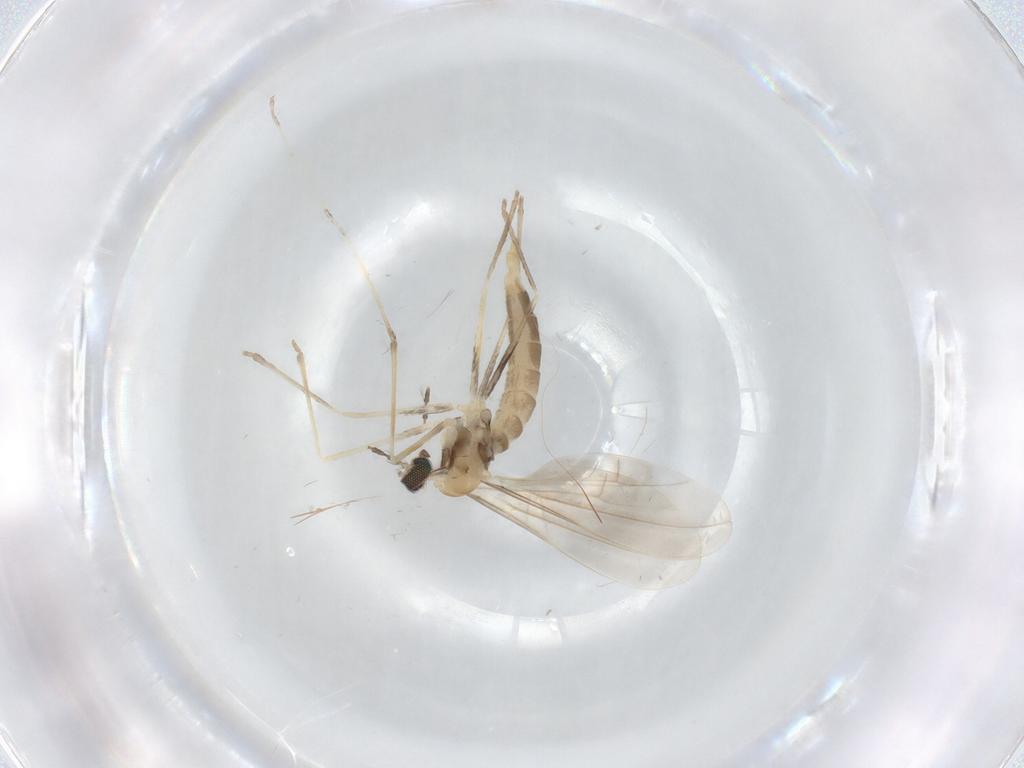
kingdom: Animalia
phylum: Arthropoda
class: Insecta
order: Diptera
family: Cecidomyiidae
